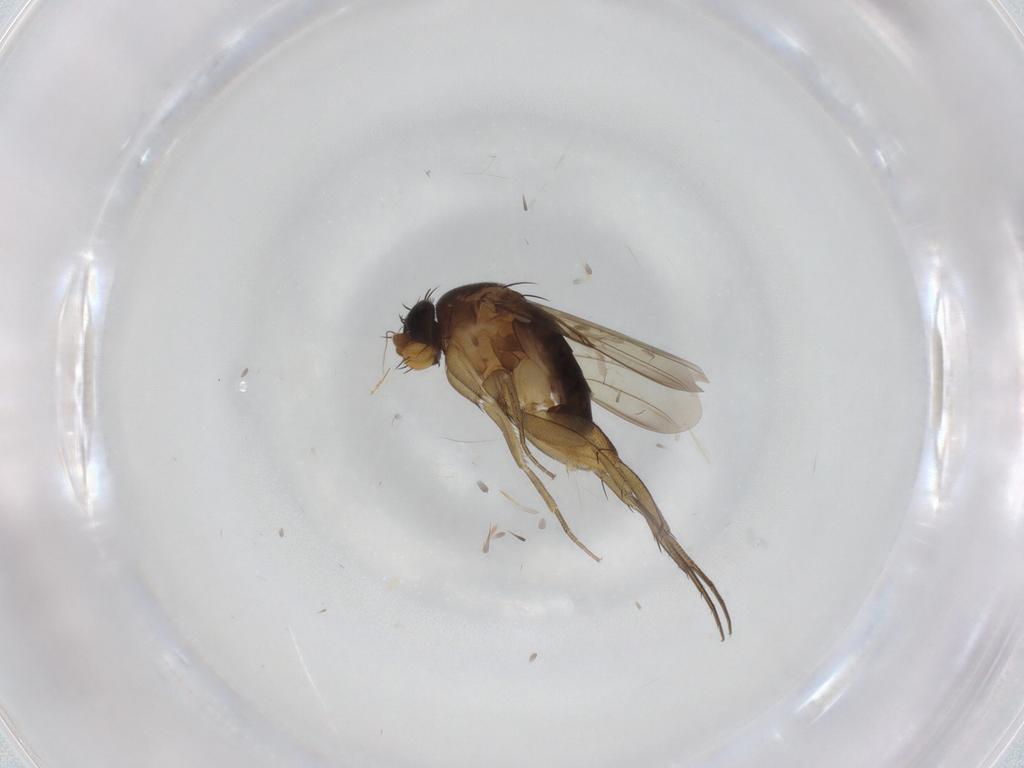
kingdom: Animalia
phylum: Arthropoda
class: Insecta
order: Diptera
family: Phoridae
